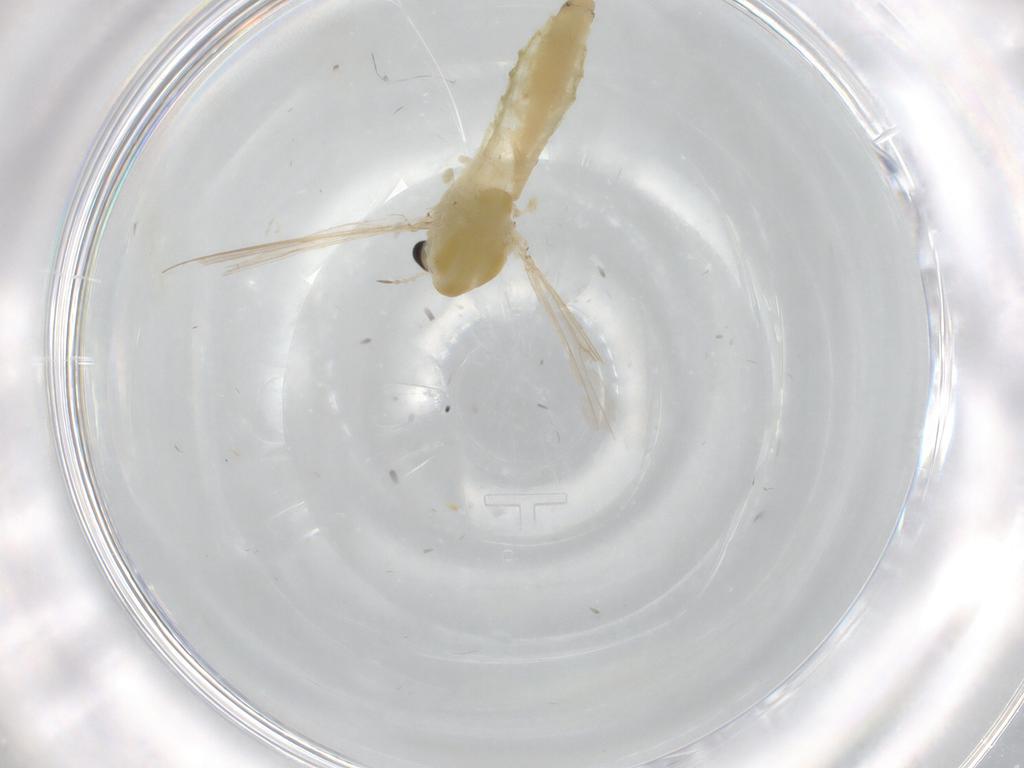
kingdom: Animalia
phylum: Arthropoda
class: Insecta
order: Diptera
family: Chironomidae
